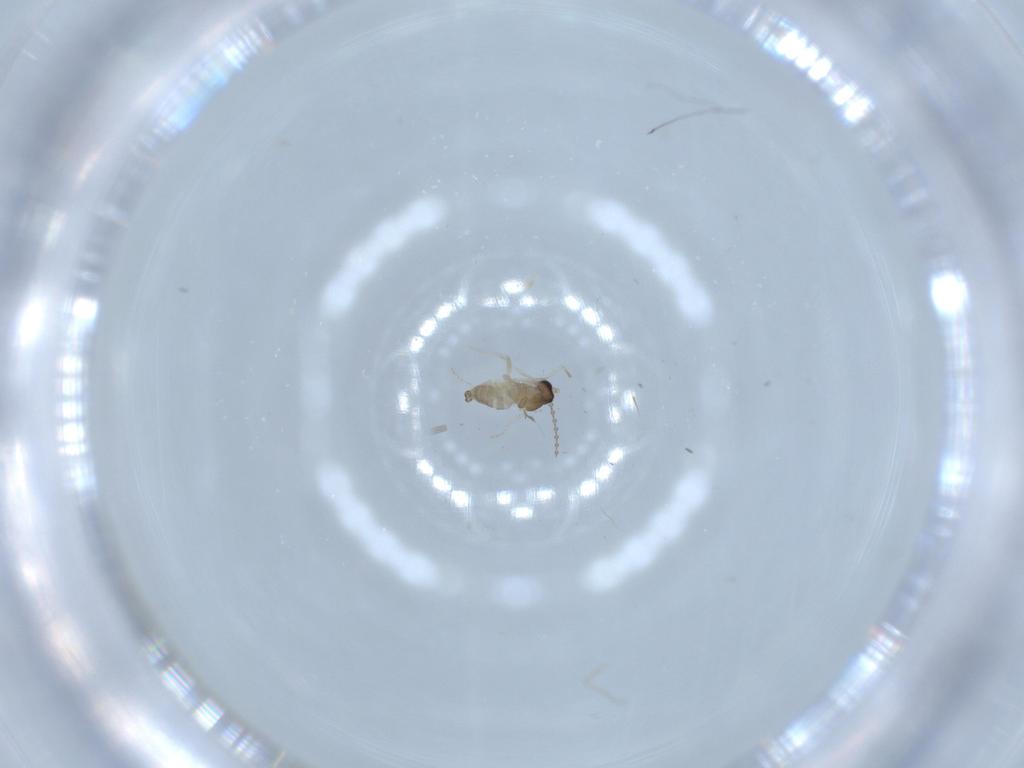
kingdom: Animalia
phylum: Arthropoda
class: Insecta
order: Diptera
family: Cecidomyiidae
